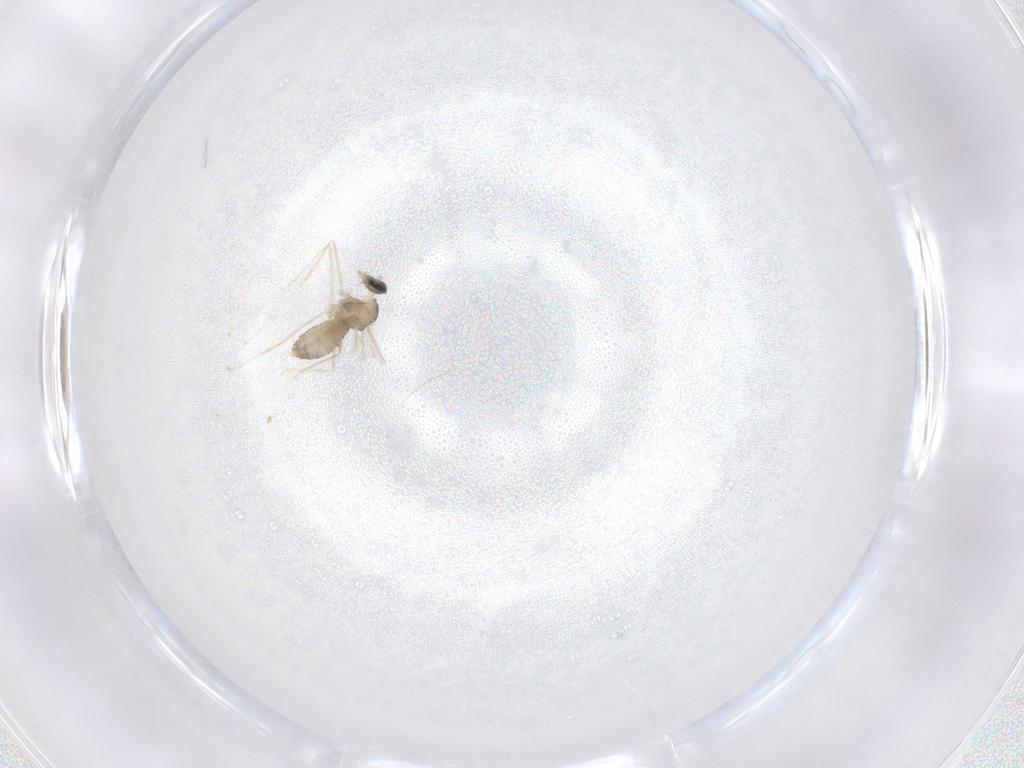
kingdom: Animalia
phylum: Arthropoda
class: Insecta
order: Diptera
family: Cecidomyiidae
